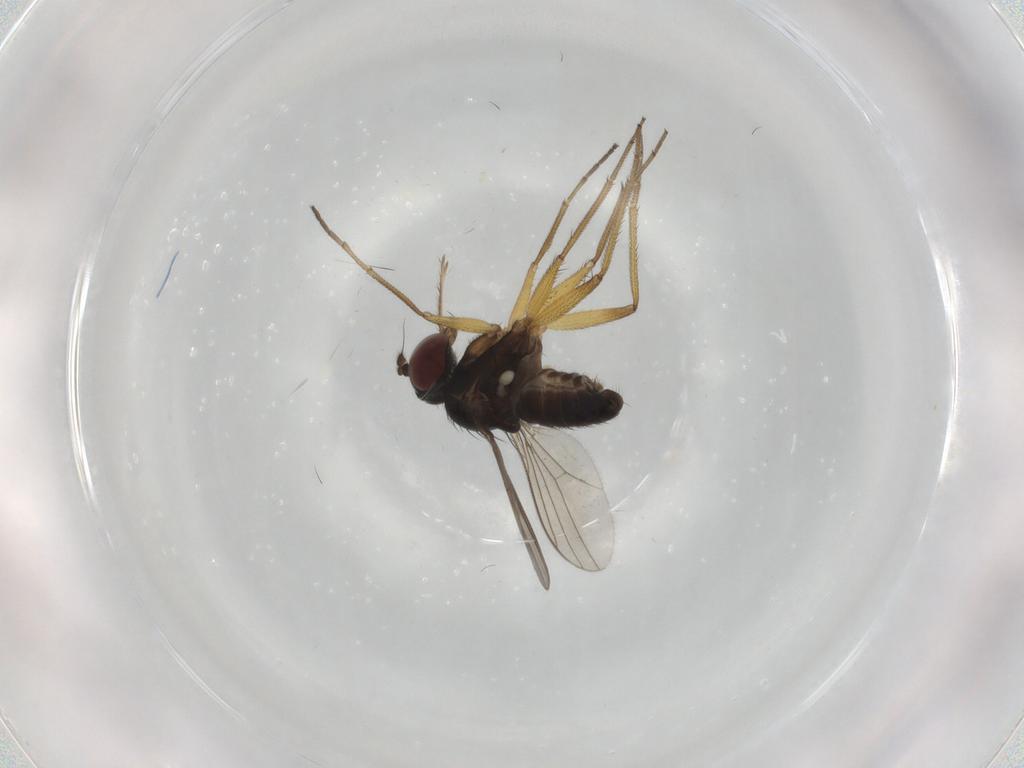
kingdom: Animalia
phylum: Arthropoda
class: Insecta
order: Diptera
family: Dolichopodidae
